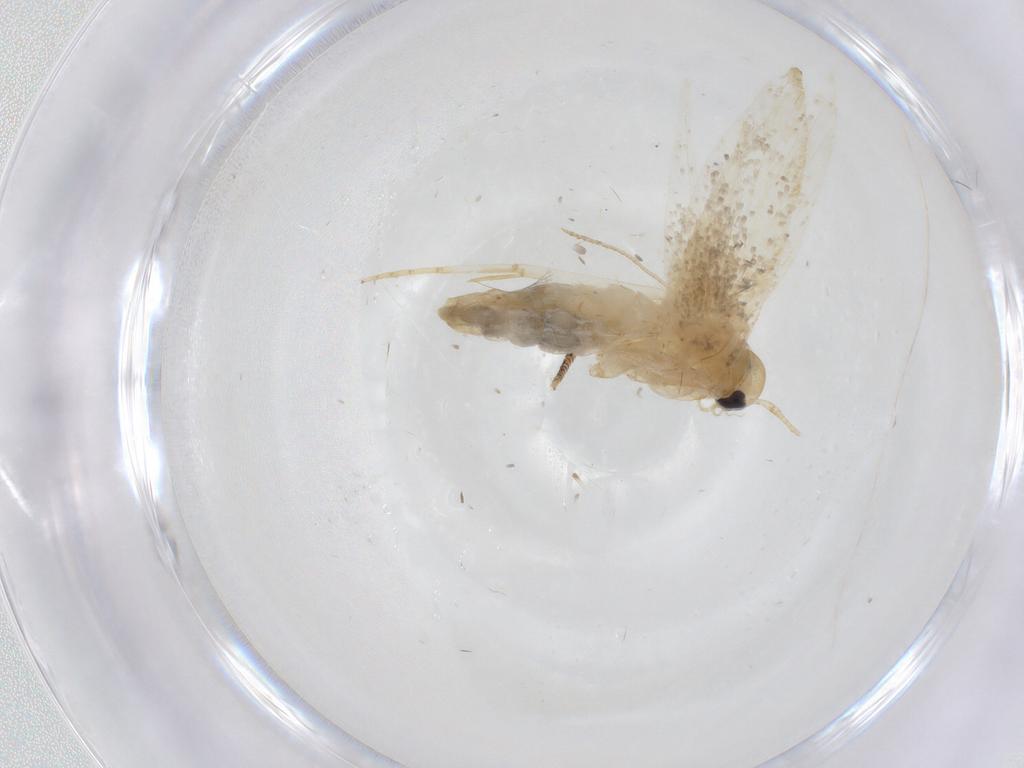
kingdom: Animalia
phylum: Arthropoda
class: Insecta
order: Lepidoptera
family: Erebidae
